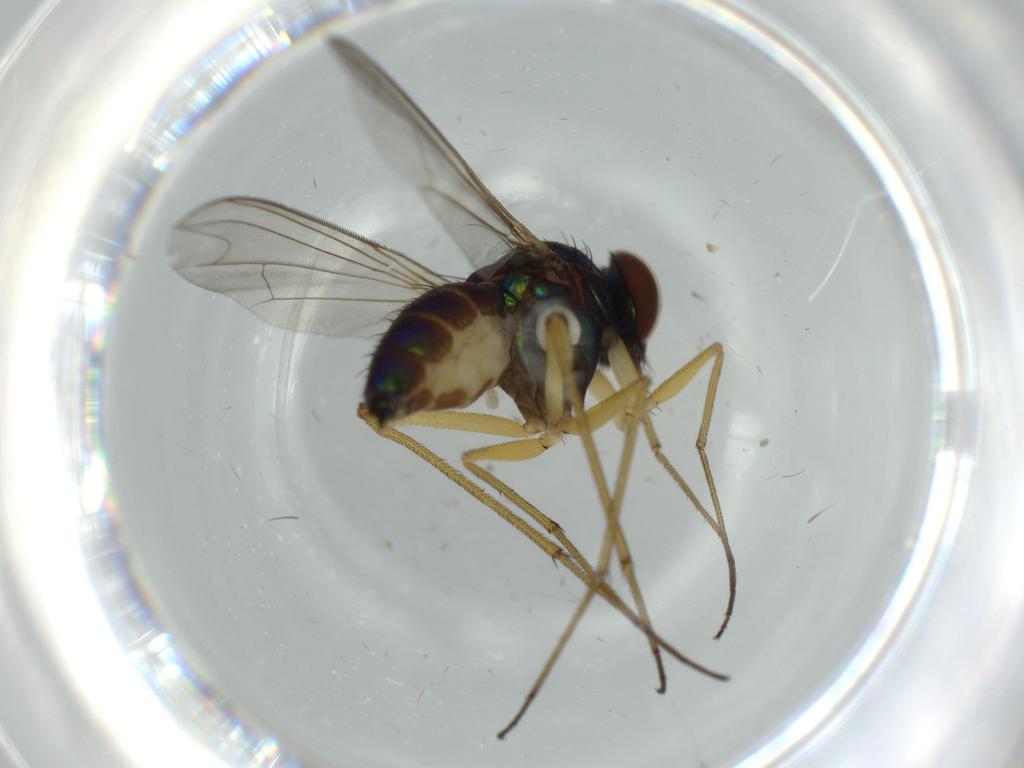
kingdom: Animalia
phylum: Arthropoda
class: Insecta
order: Diptera
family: Dolichopodidae
